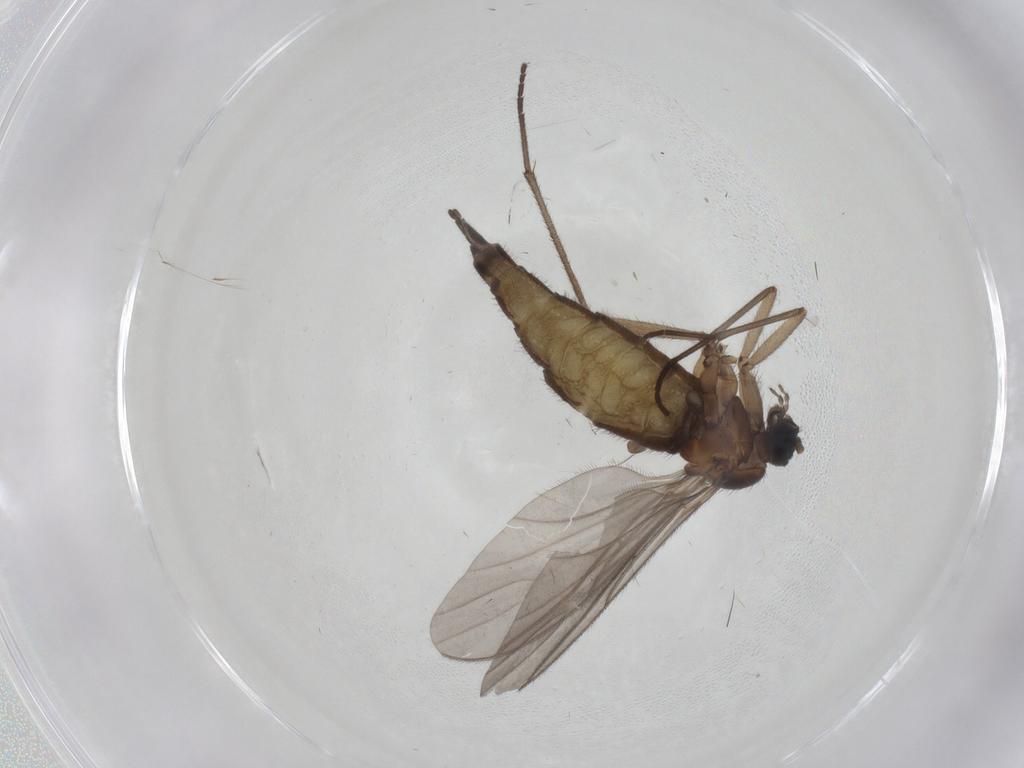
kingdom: Animalia
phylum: Arthropoda
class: Insecta
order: Diptera
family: Sciaridae
